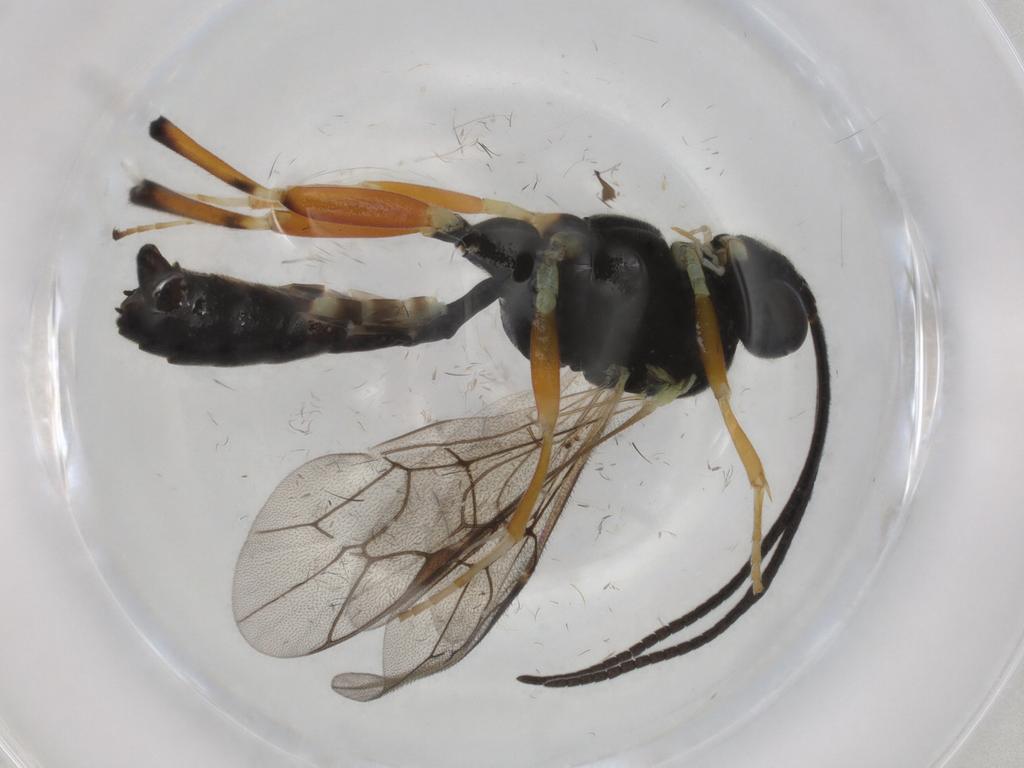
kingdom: Animalia
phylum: Arthropoda
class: Insecta
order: Hymenoptera
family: Ichneumonidae
